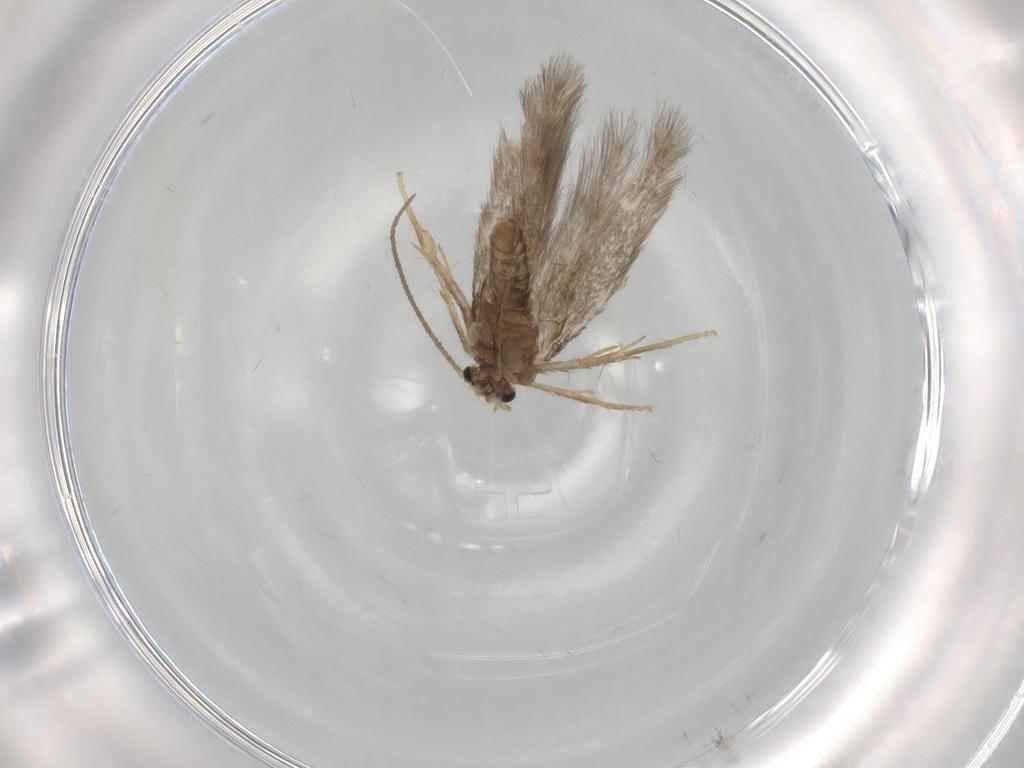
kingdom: Animalia
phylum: Arthropoda
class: Insecta
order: Lepidoptera
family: Nepticulidae
